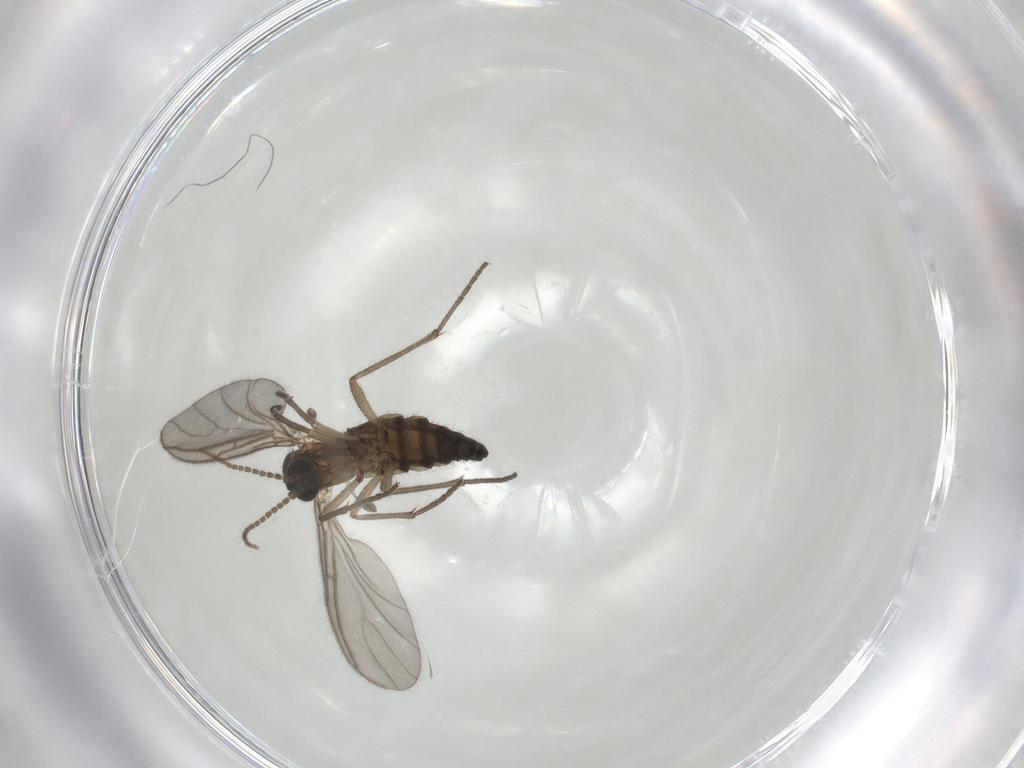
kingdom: Animalia
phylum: Arthropoda
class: Insecta
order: Diptera
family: Sciaridae
